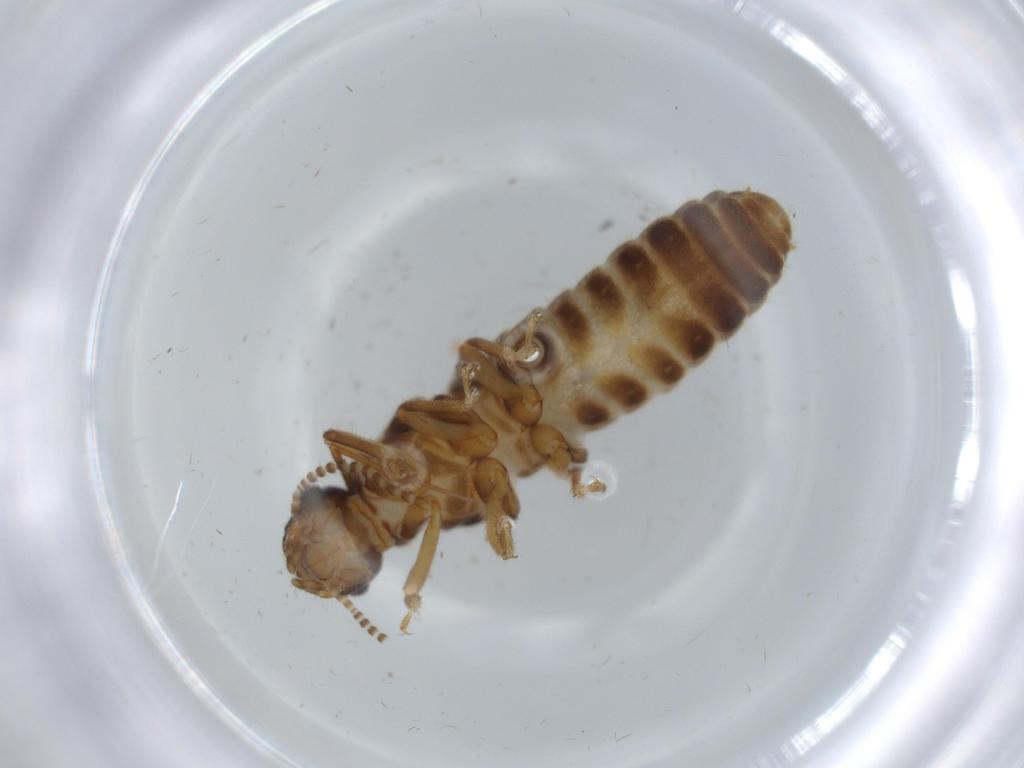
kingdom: Animalia
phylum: Arthropoda
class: Insecta
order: Blattodea
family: Termitidae
